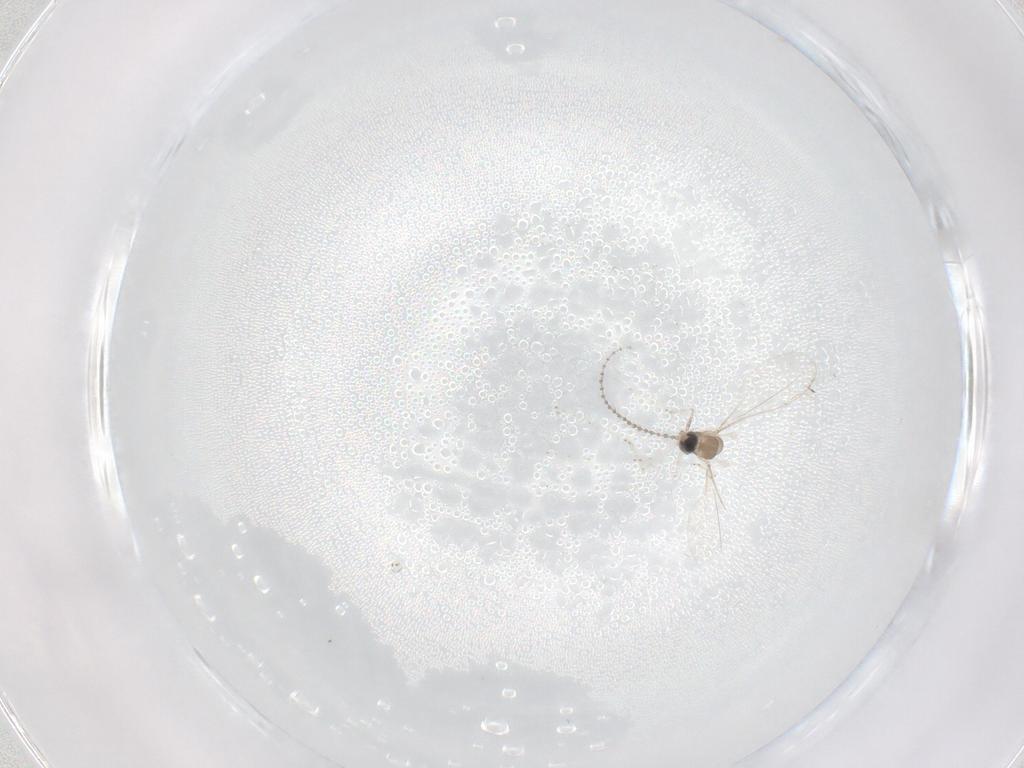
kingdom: Animalia
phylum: Arthropoda
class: Insecta
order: Diptera
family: Cecidomyiidae
